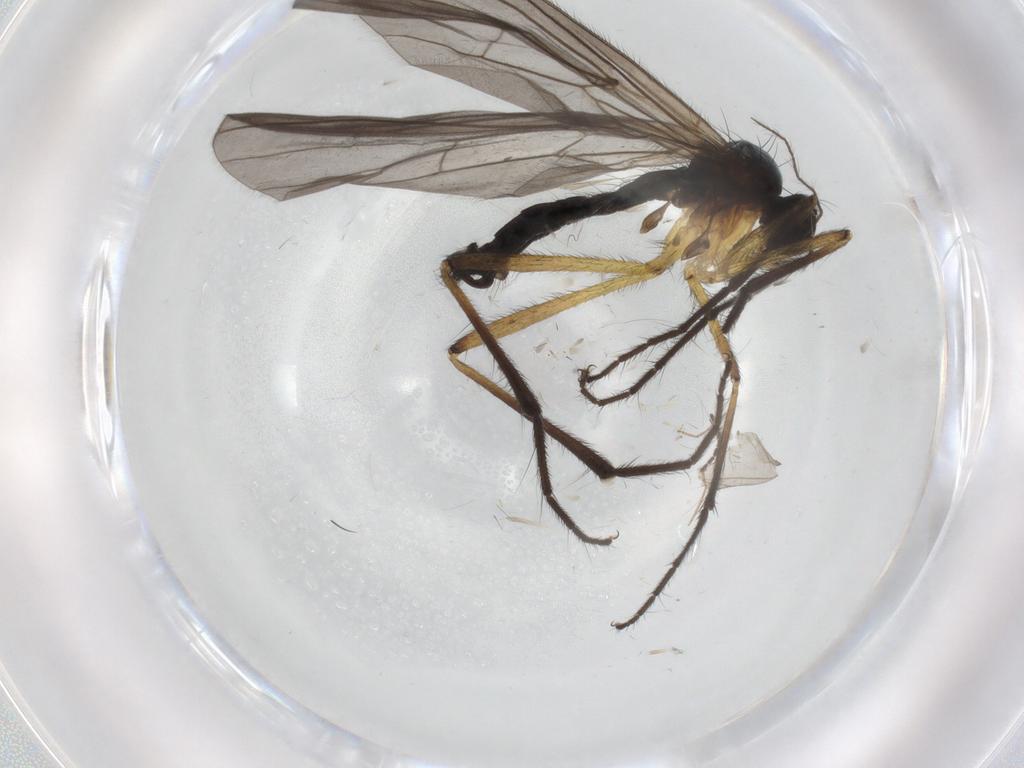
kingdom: Animalia
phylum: Arthropoda
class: Insecta
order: Diptera
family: Empididae
